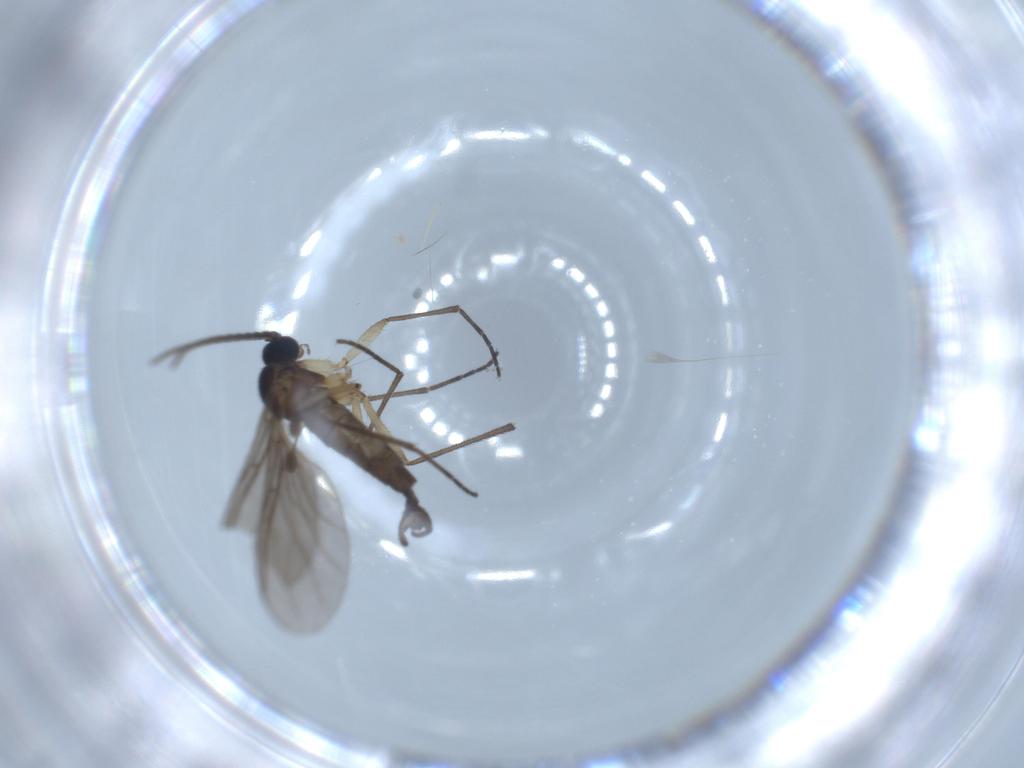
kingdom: Animalia
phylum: Arthropoda
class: Insecta
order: Diptera
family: Sciaridae
